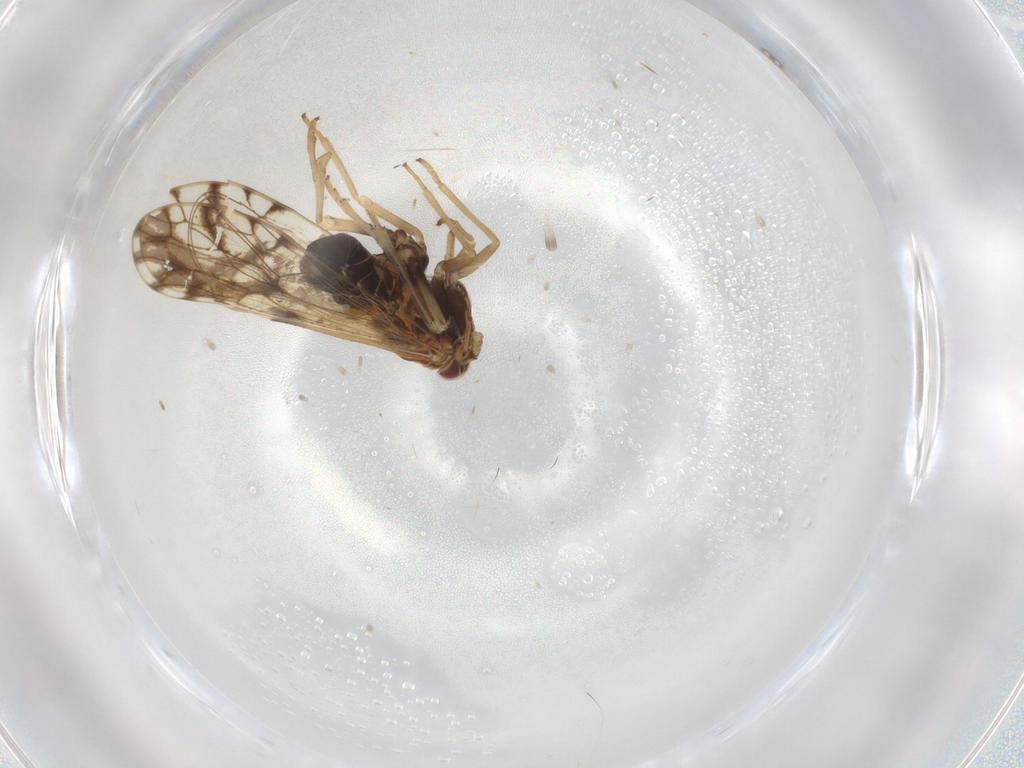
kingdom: Animalia
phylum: Arthropoda
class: Insecta
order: Hemiptera
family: Delphacidae
